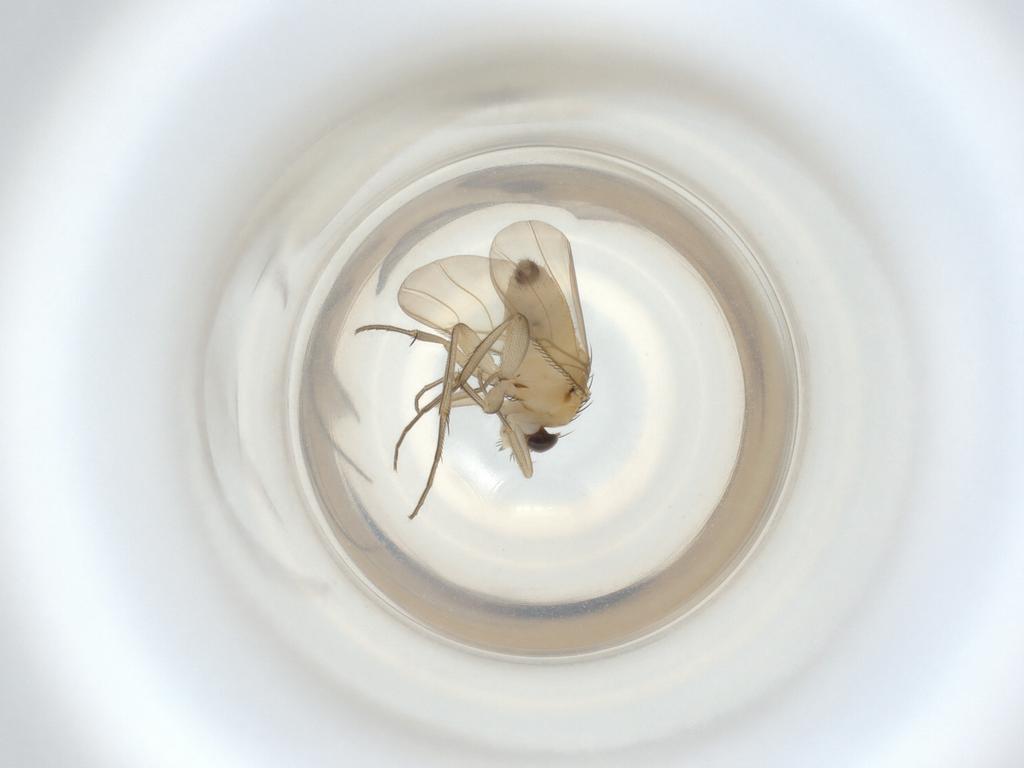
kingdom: Animalia
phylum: Arthropoda
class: Insecta
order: Diptera
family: Phoridae
